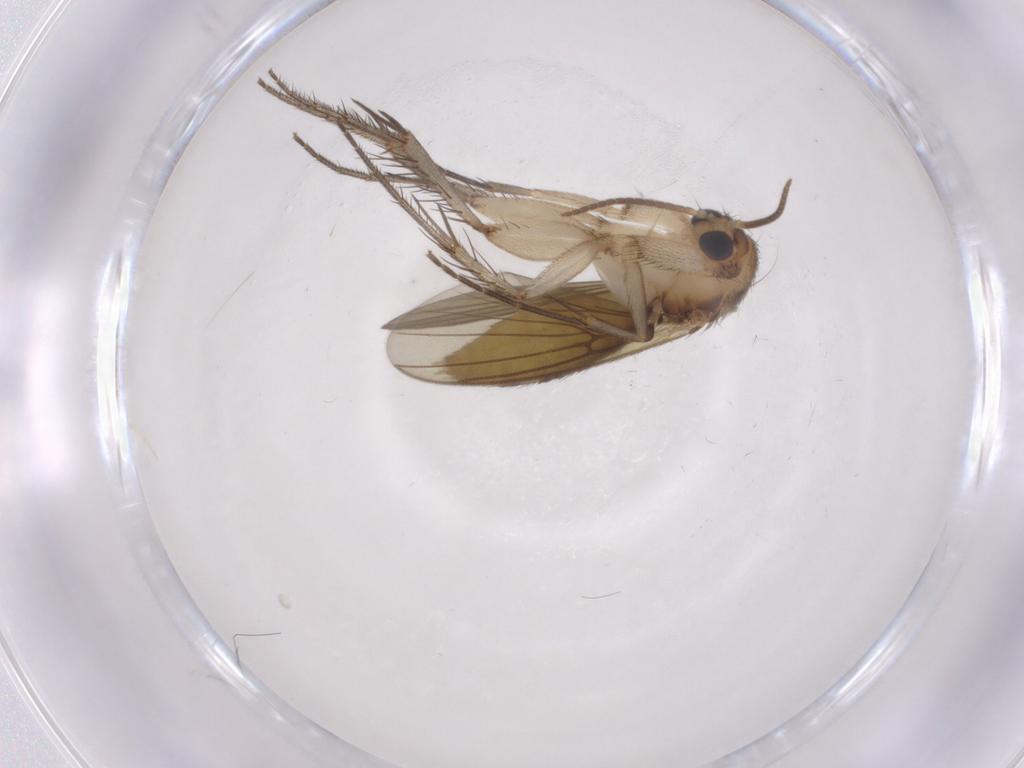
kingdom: Animalia
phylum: Arthropoda
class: Insecta
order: Diptera
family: Mycetophilidae
